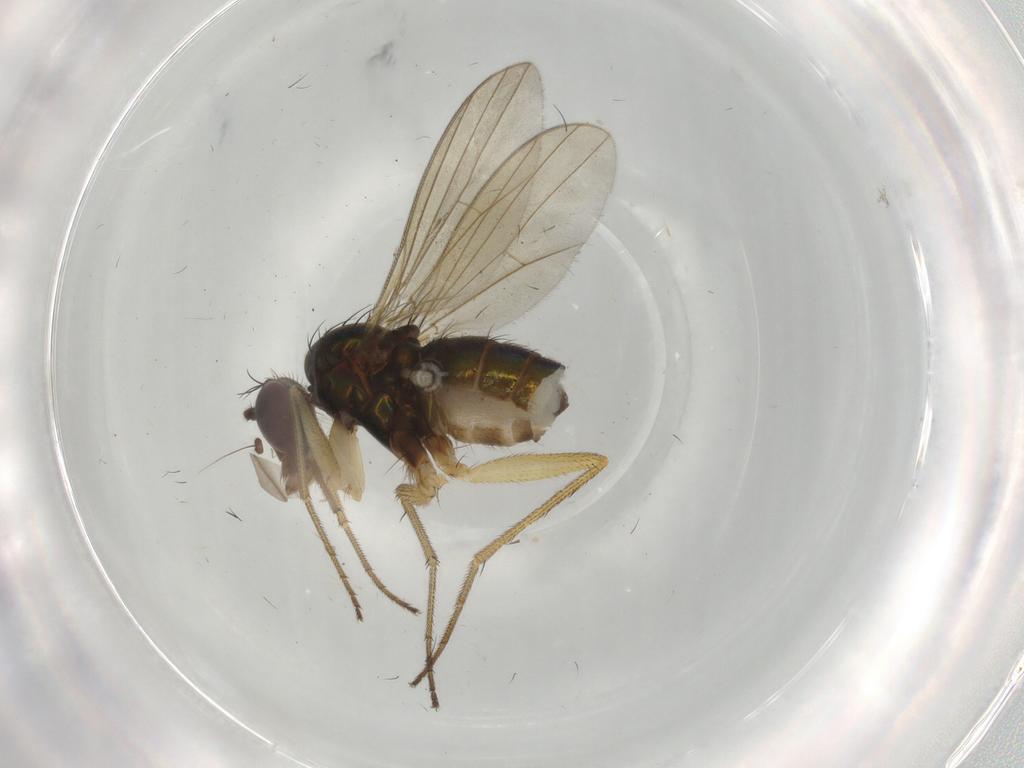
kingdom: Animalia
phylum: Arthropoda
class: Insecta
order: Diptera
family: Dolichopodidae
